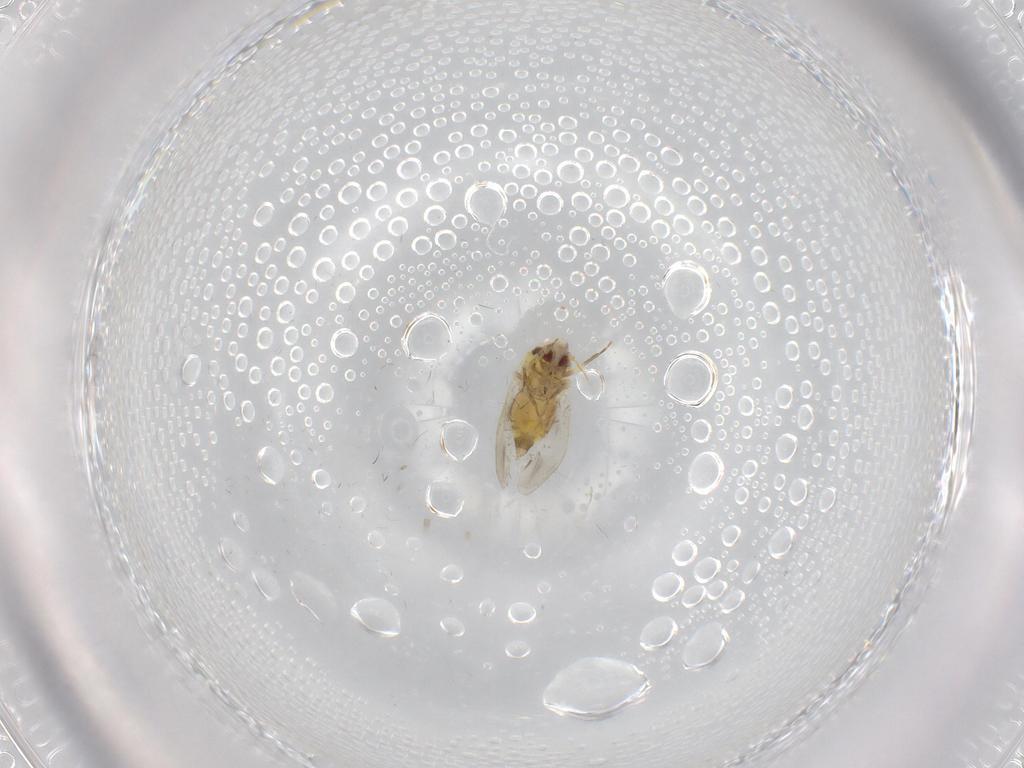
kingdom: Animalia
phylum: Arthropoda
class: Insecta
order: Hemiptera
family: Aleyrodidae
